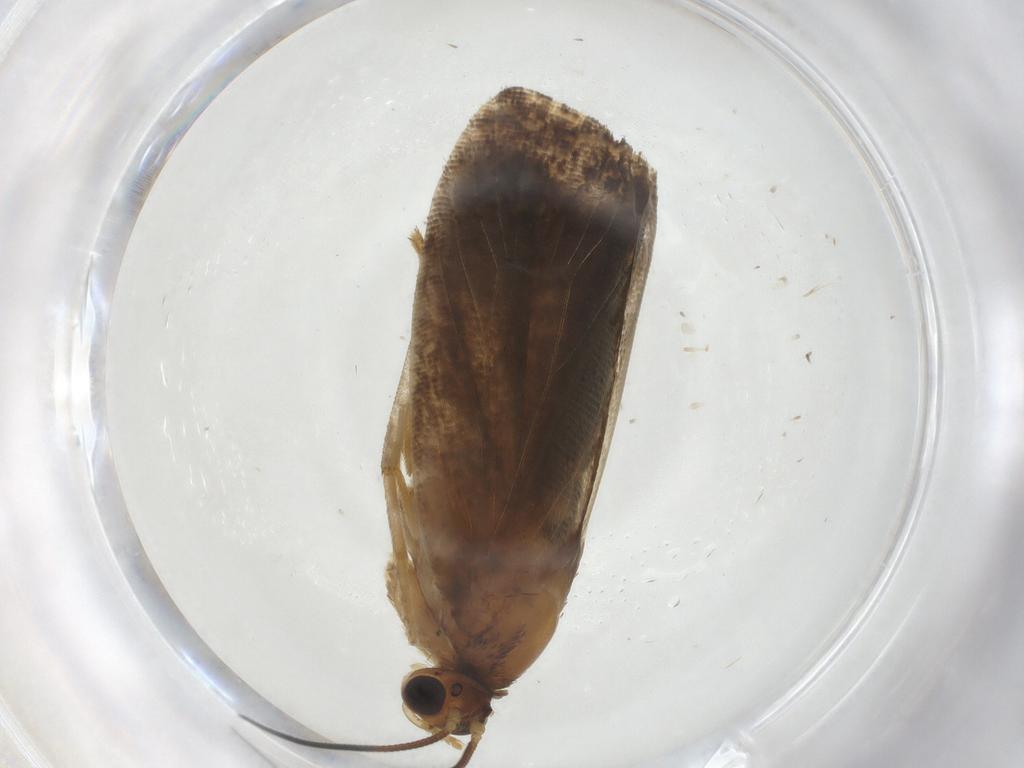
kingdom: Animalia
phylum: Arthropoda
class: Insecta
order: Lepidoptera
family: Tortricidae
